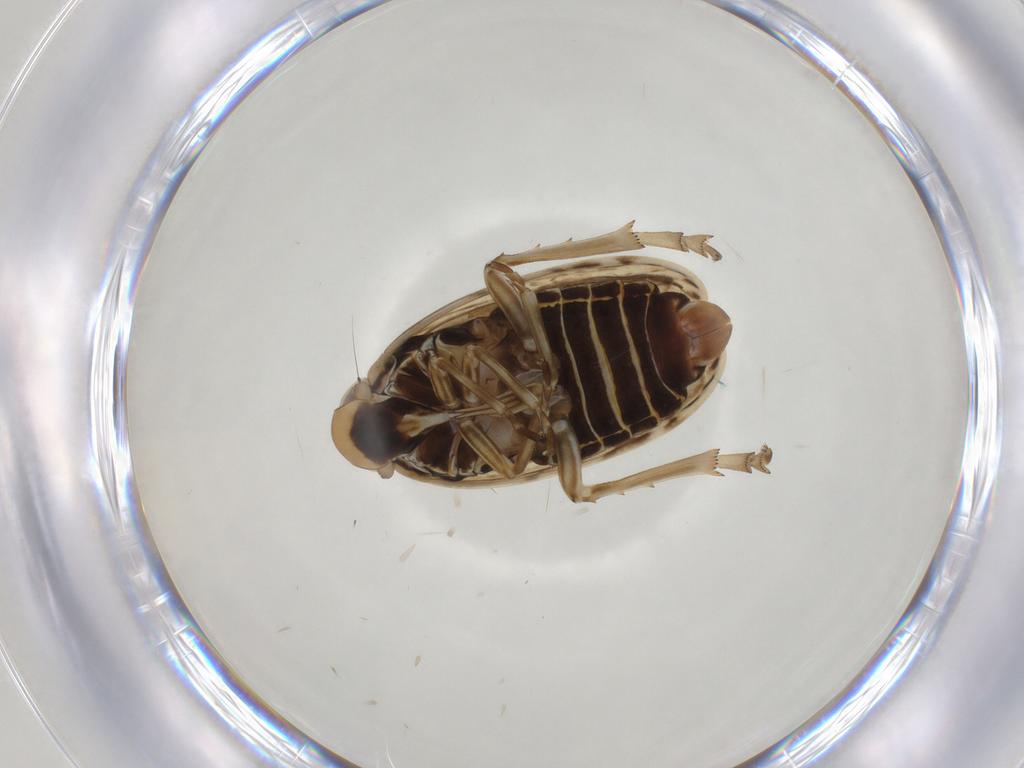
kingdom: Animalia
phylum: Arthropoda
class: Insecta
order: Hemiptera
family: Achilidae
